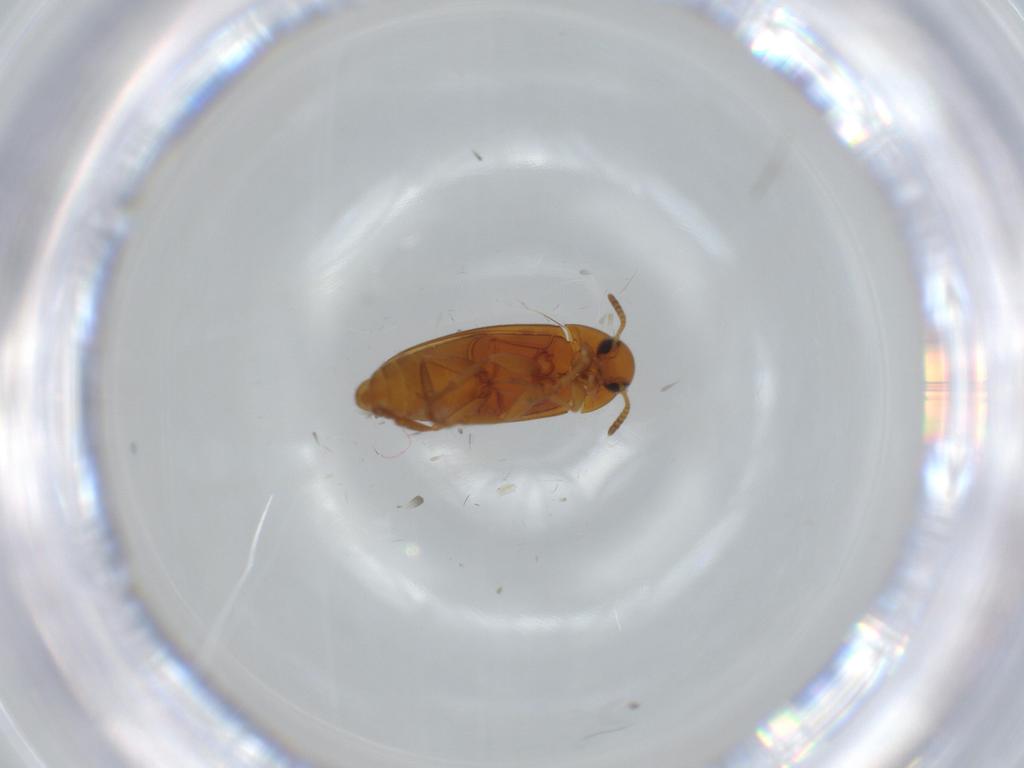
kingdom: Animalia
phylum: Arthropoda
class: Insecta
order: Coleoptera
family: Scraptiidae
